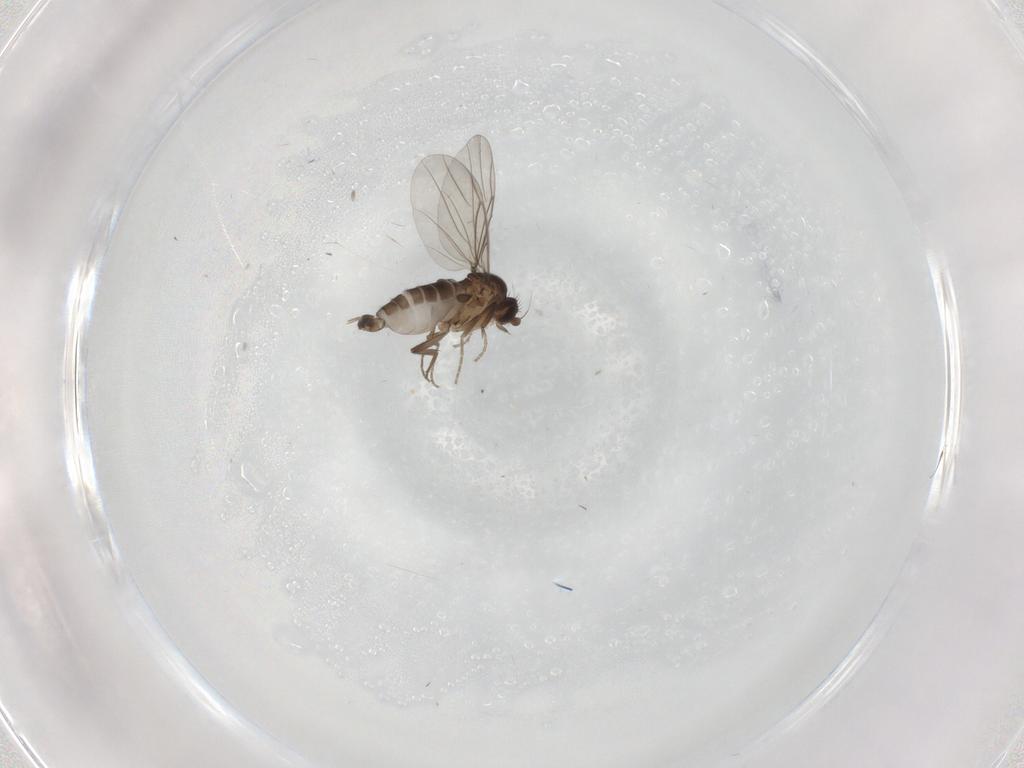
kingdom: Animalia
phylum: Arthropoda
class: Insecta
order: Diptera
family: Phoridae
